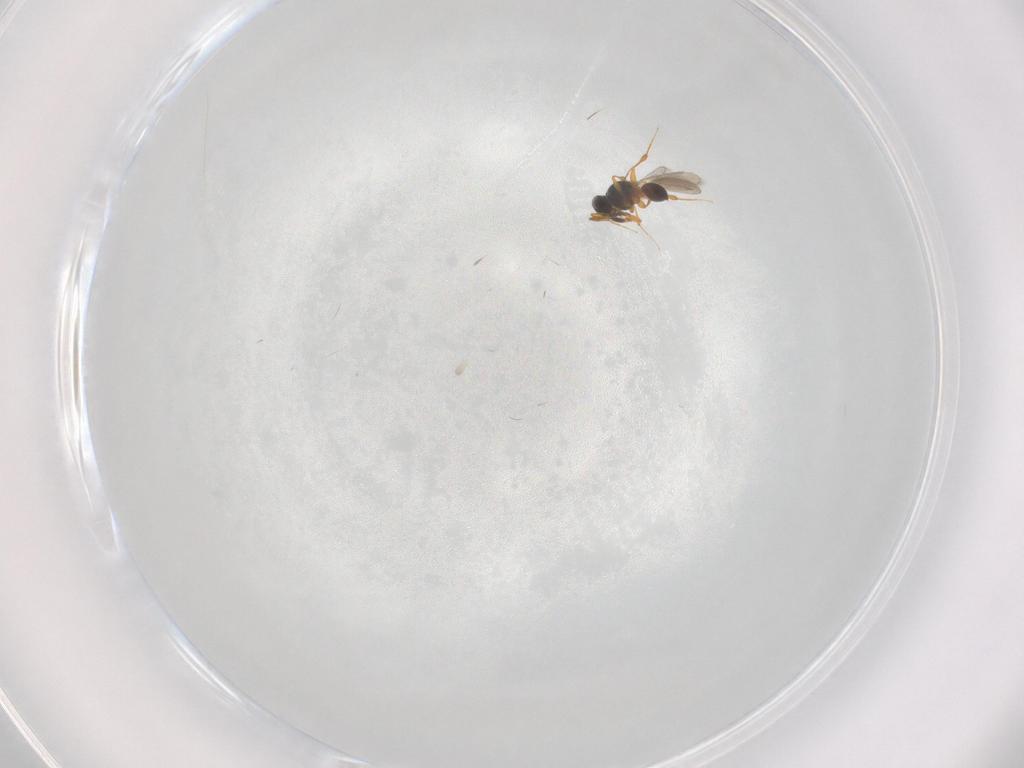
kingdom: Animalia
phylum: Arthropoda
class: Insecta
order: Hymenoptera
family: Platygastridae
